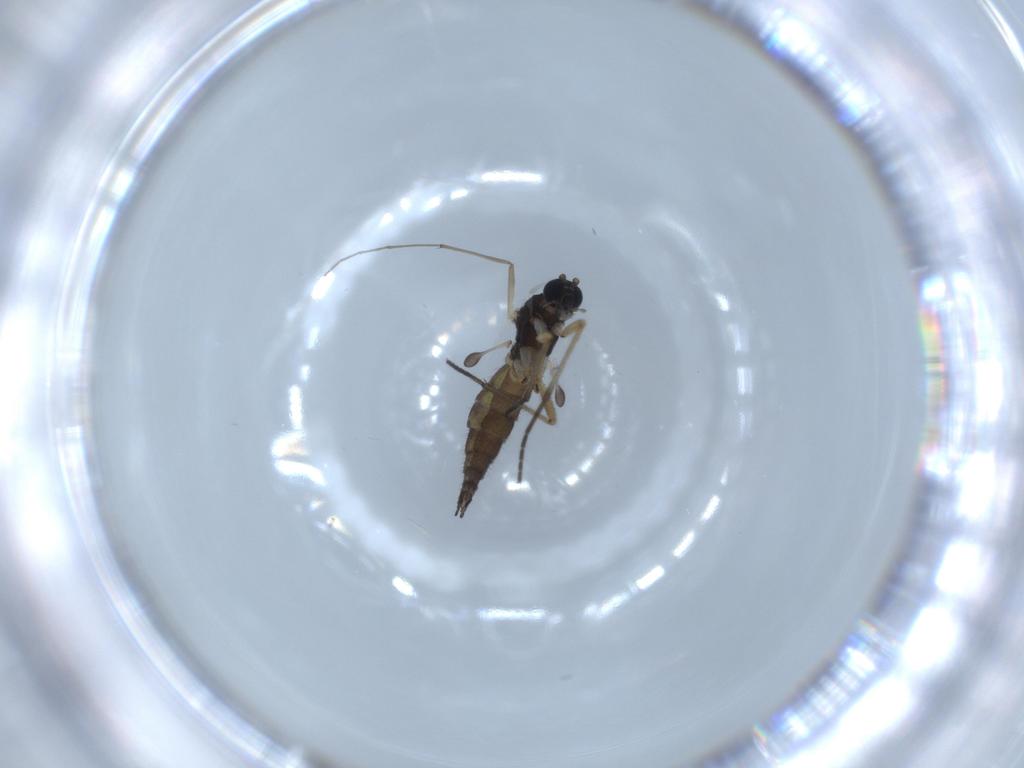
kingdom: Animalia
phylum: Arthropoda
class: Insecta
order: Diptera
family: Sciaridae
